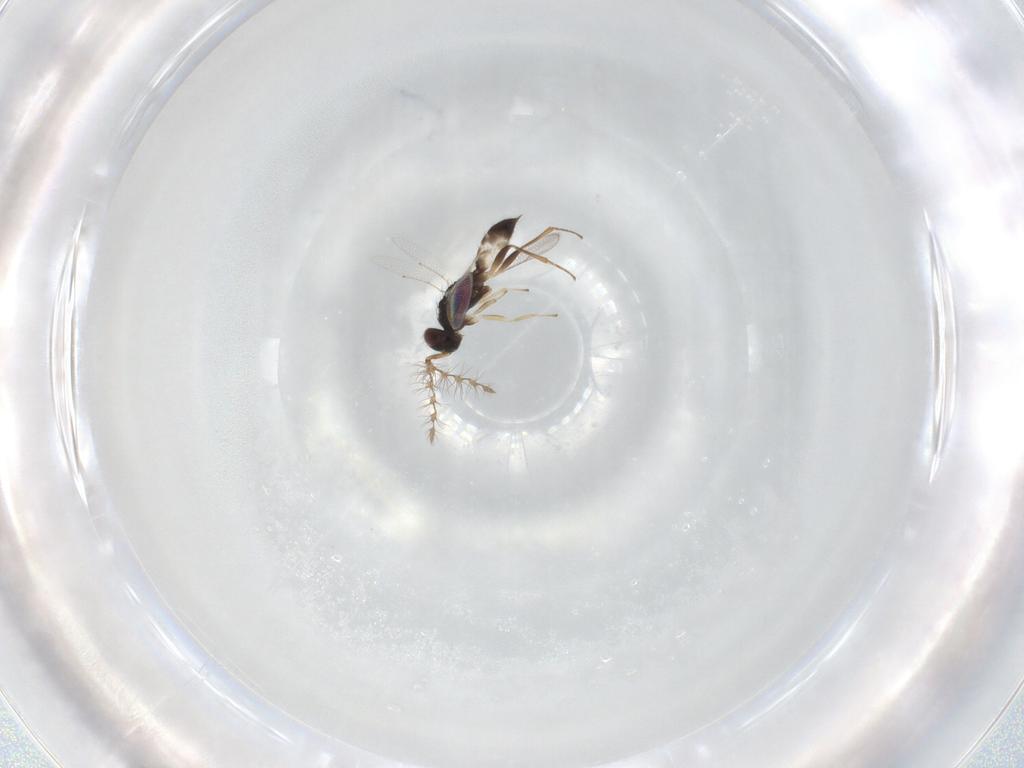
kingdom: Animalia
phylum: Arthropoda
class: Insecta
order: Hymenoptera
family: Eulophidae
